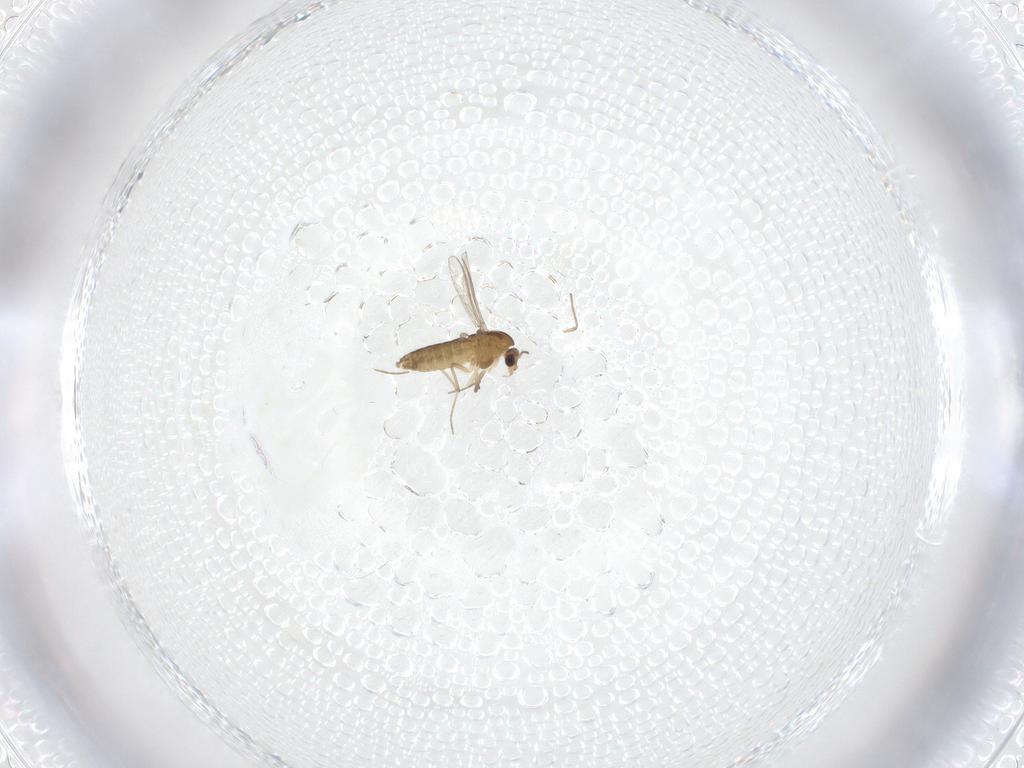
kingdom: Animalia
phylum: Arthropoda
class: Insecta
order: Diptera
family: Chironomidae
